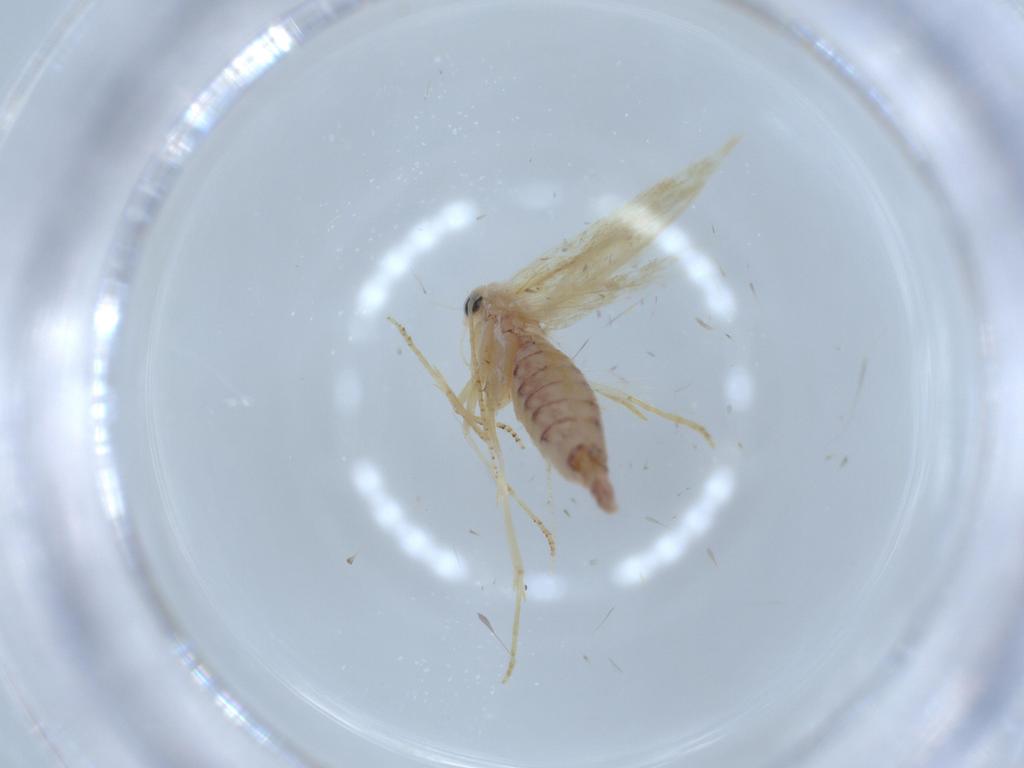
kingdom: Animalia
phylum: Arthropoda
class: Insecta
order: Lepidoptera
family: Bucculatricidae
